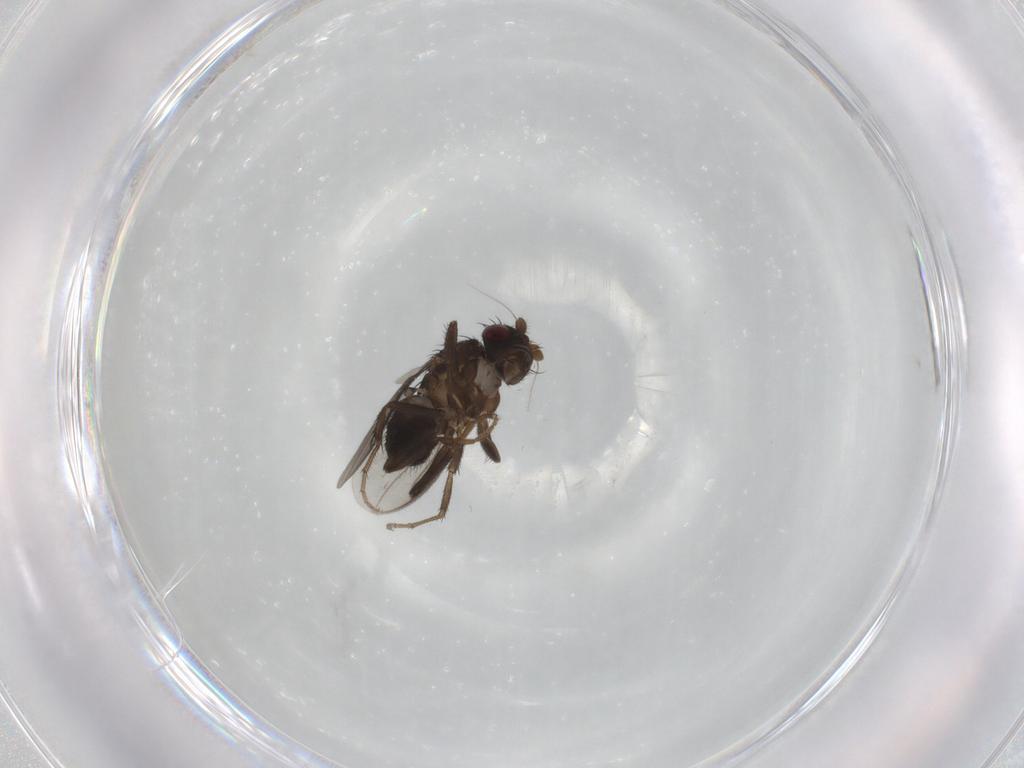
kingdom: Animalia
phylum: Arthropoda
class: Insecta
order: Diptera
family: Sphaeroceridae
